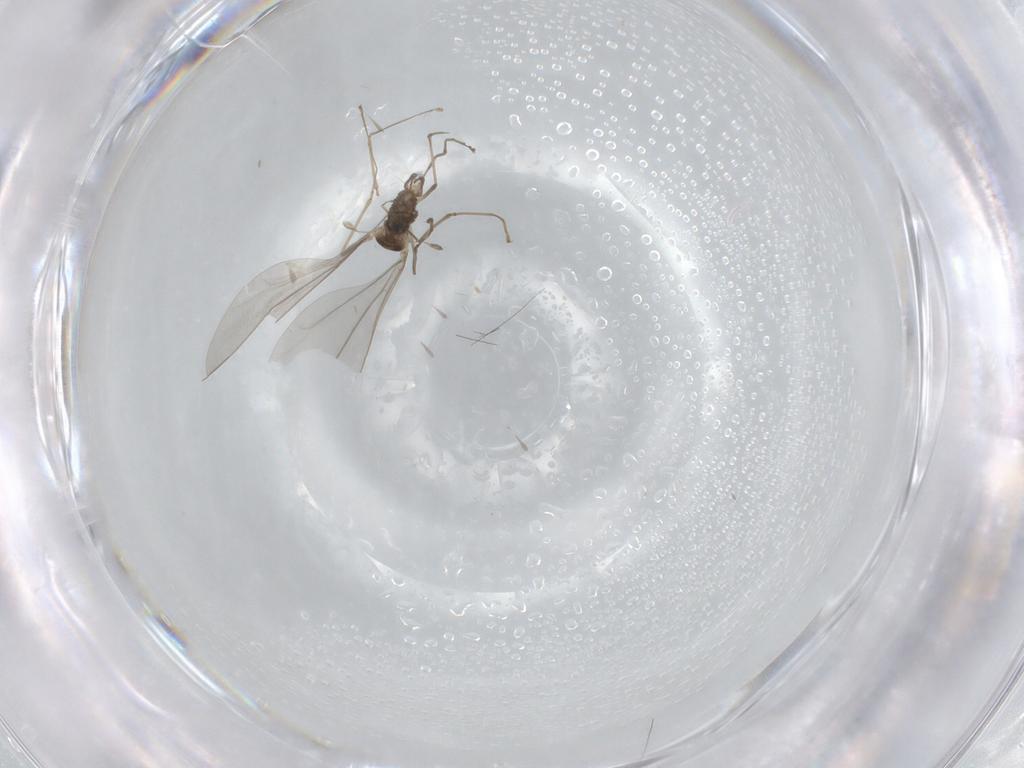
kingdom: Animalia
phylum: Arthropoda
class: Insecta
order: Diptera
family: Cecidomyiidae
